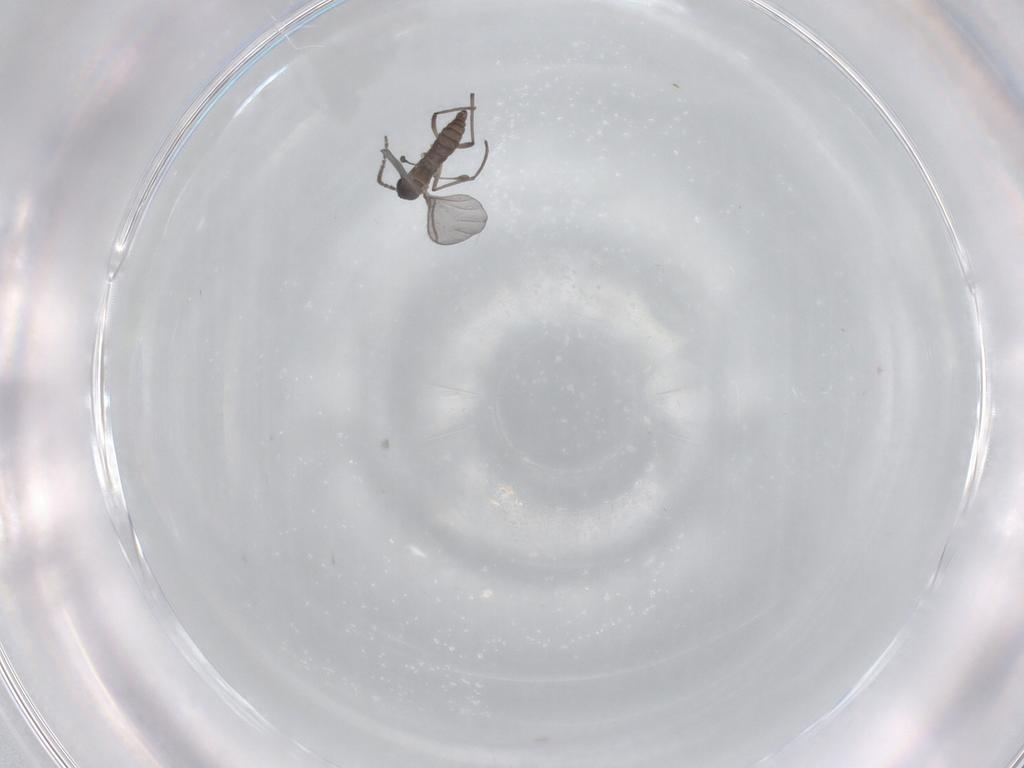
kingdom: Animalia
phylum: Arthropoda
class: Insecta
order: Diptera
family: Sciaridae
